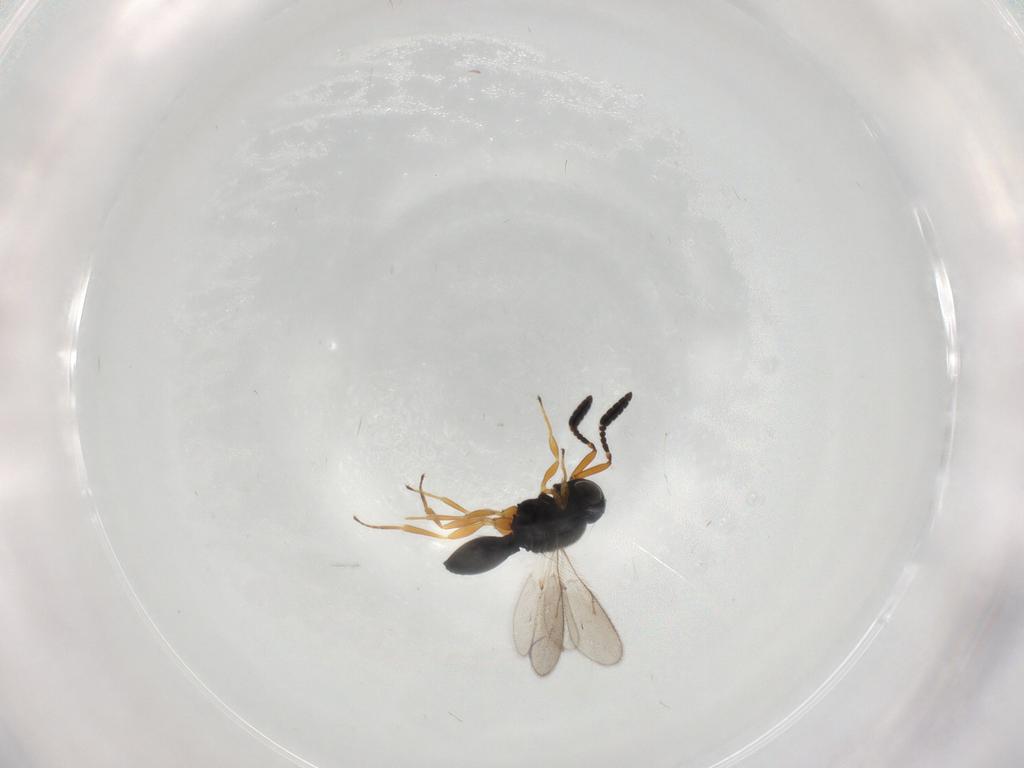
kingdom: Animalia
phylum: Arthropoda
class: Insecta
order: Hymenoptera
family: Scelionidae
